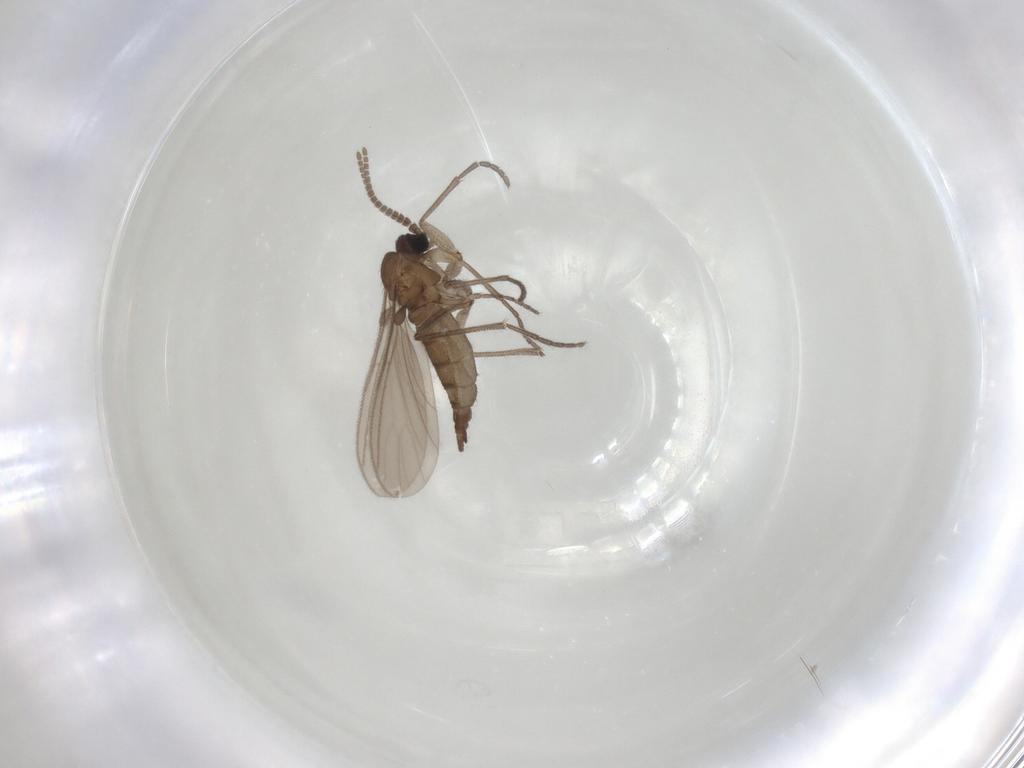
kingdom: Animalia
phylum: Arthropoda
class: Insecta
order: Diptera
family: Sciaridae
